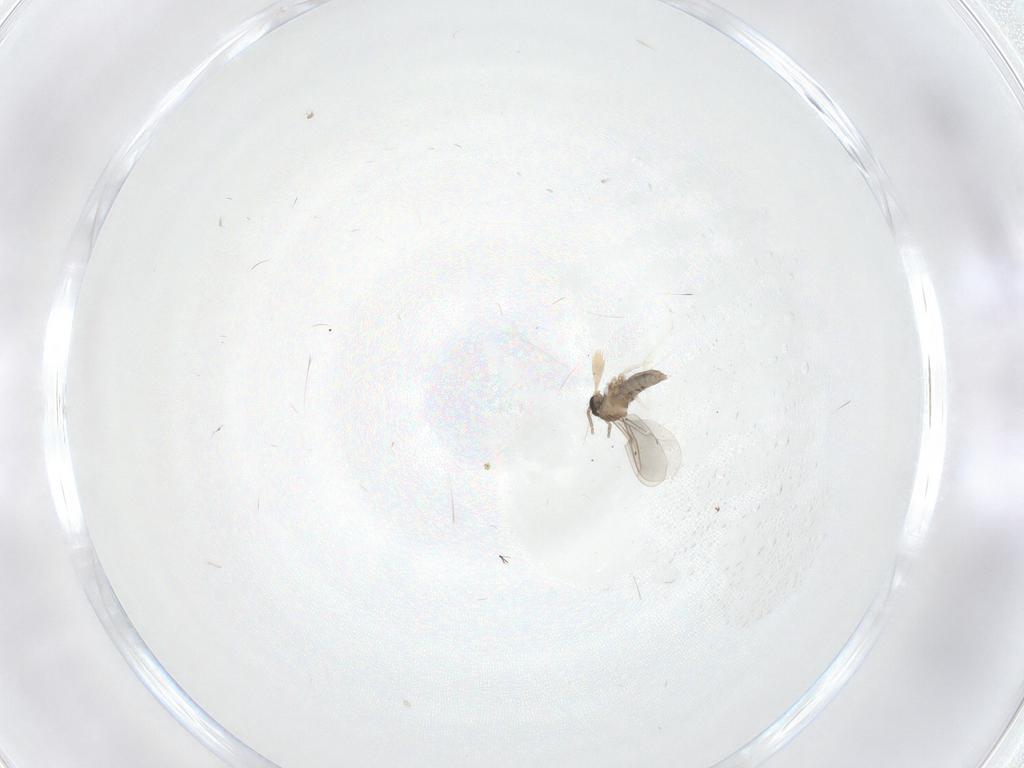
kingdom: Animalia
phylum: Arthropoda
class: Insecta
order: Diptera
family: Cecidomyiidae
